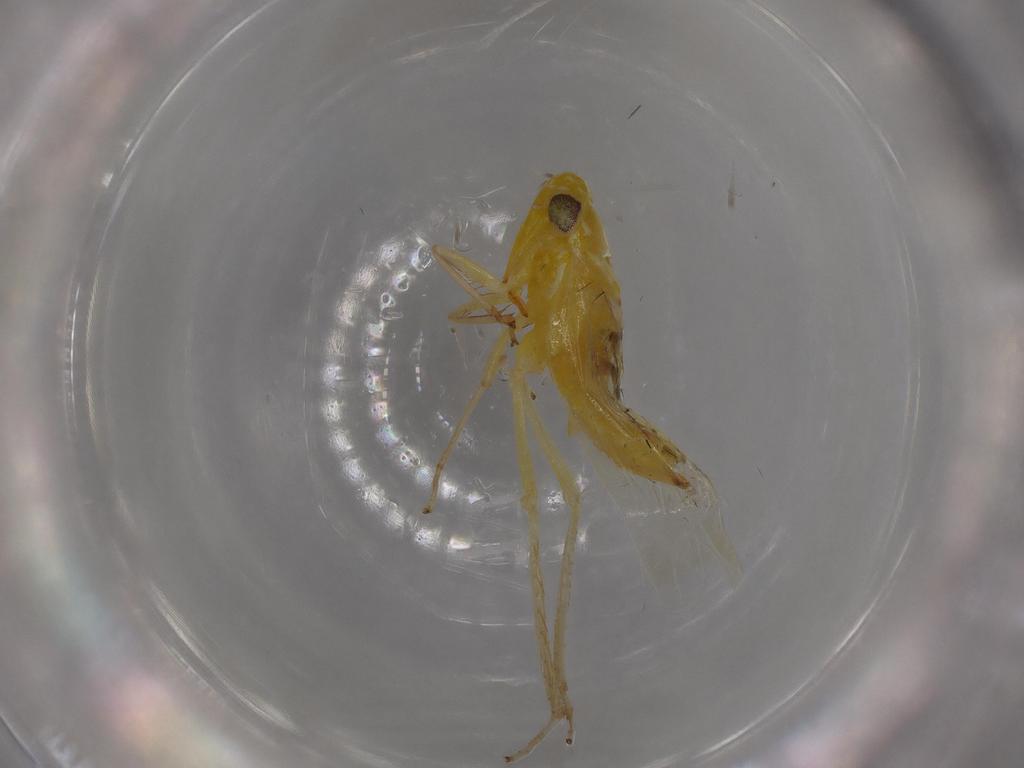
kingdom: Animalia
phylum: Arthropoda
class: Insecta
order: Hemiptera
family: Cicadellidae
